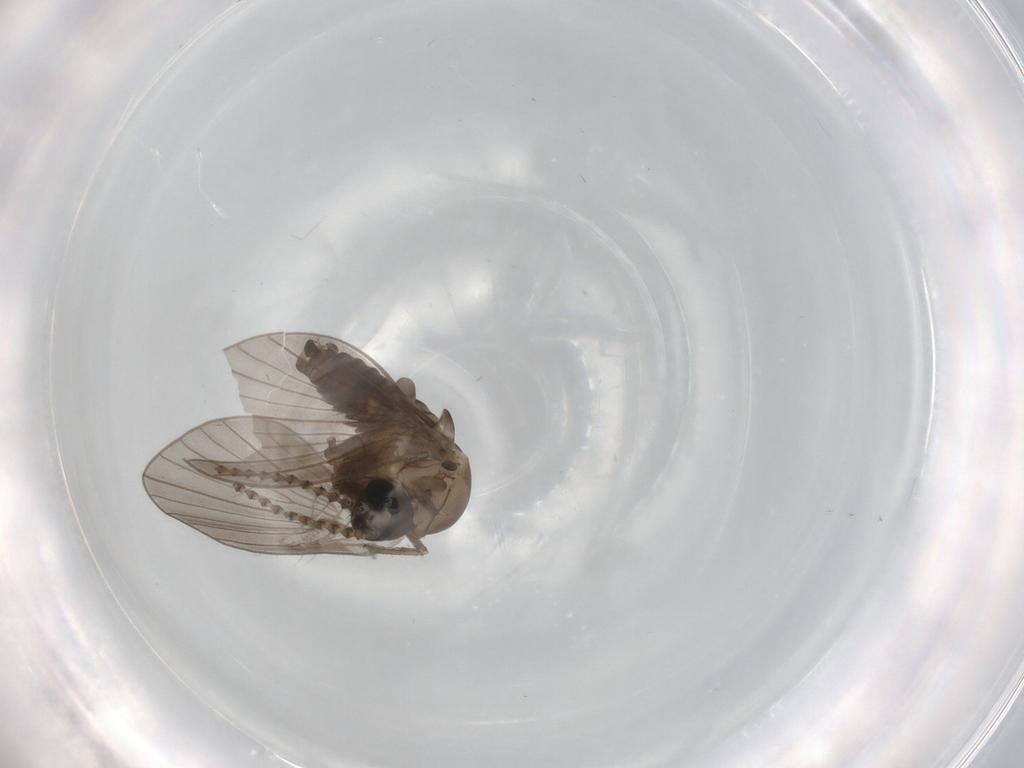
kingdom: Animalia
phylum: Arthropoda
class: Insecta
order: Diptera
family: Psychodidae
